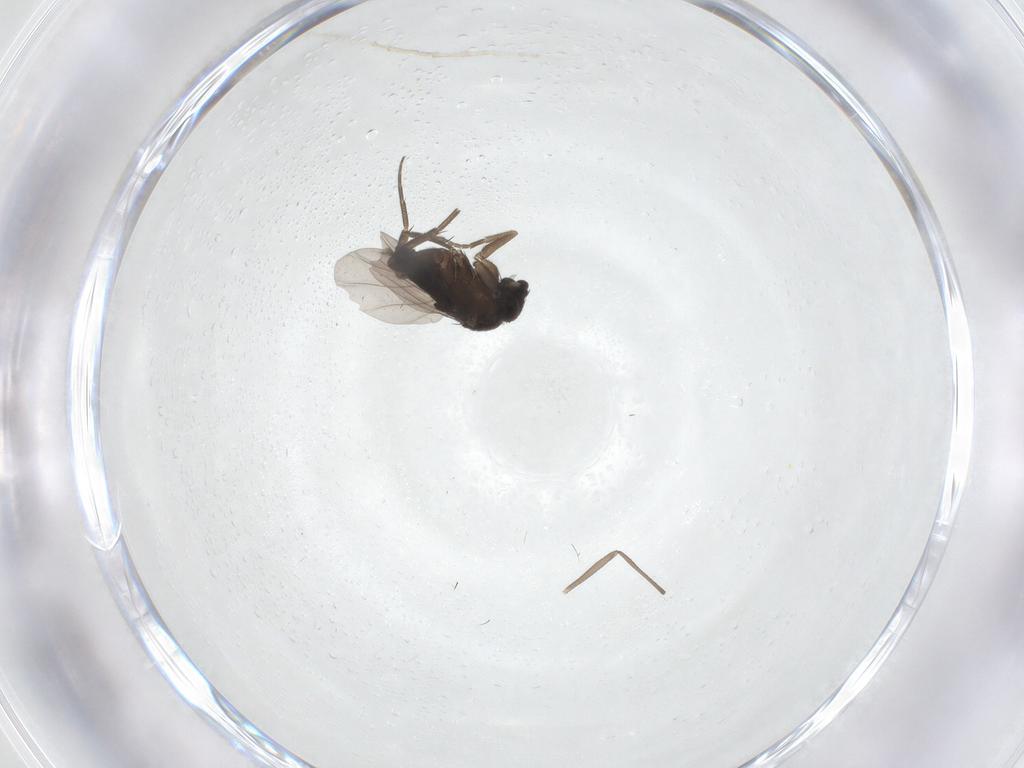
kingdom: Animalia
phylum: Arthropoda
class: Insecta
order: Diptera
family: Phoridae
